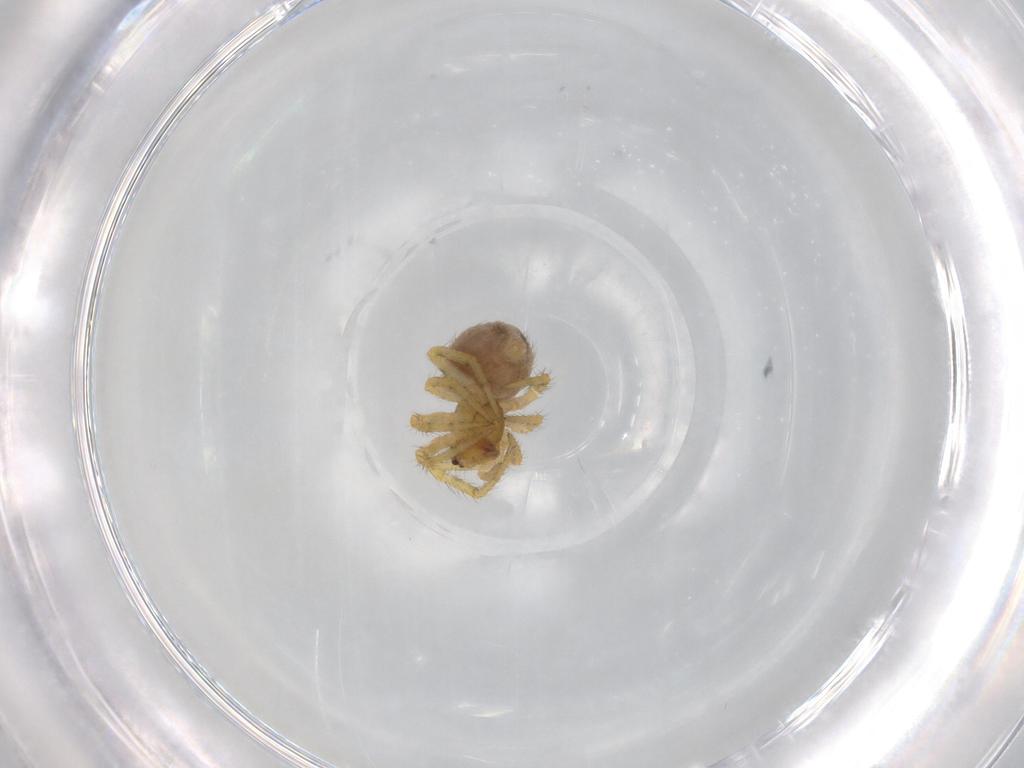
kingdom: Animalia
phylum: Arthropoda
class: Arachnida
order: Araneae
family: Theridiidae
